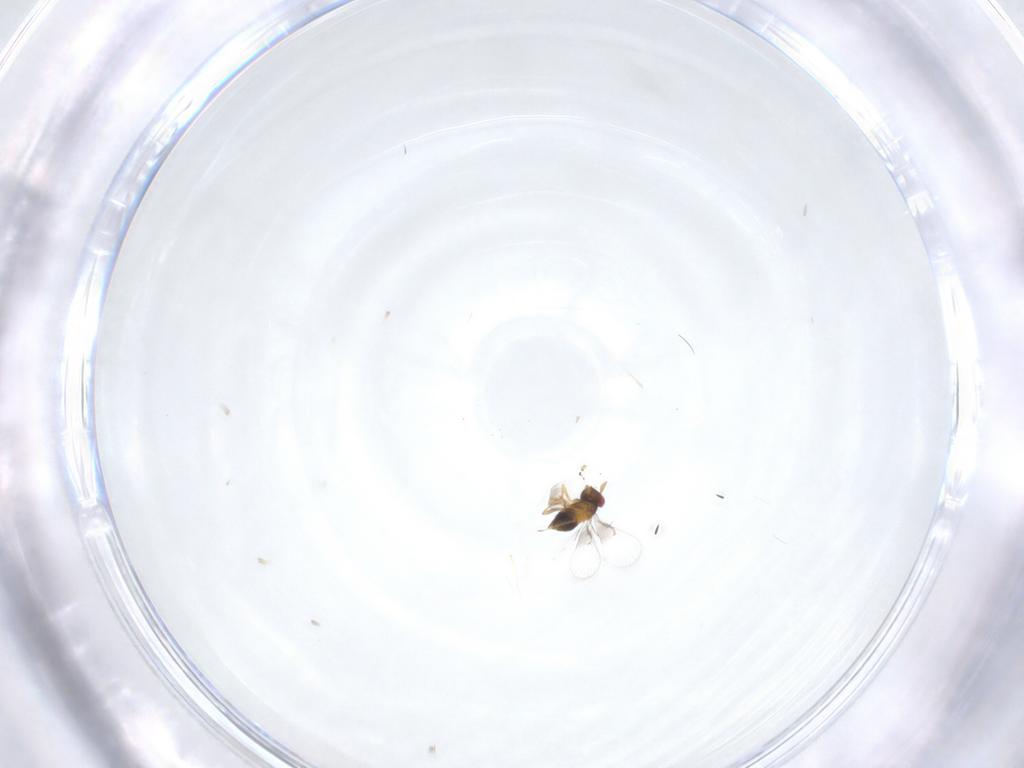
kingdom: Animalia
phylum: Arthropoda
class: Insecta
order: Hymenoptera
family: Trichogrammatidae
